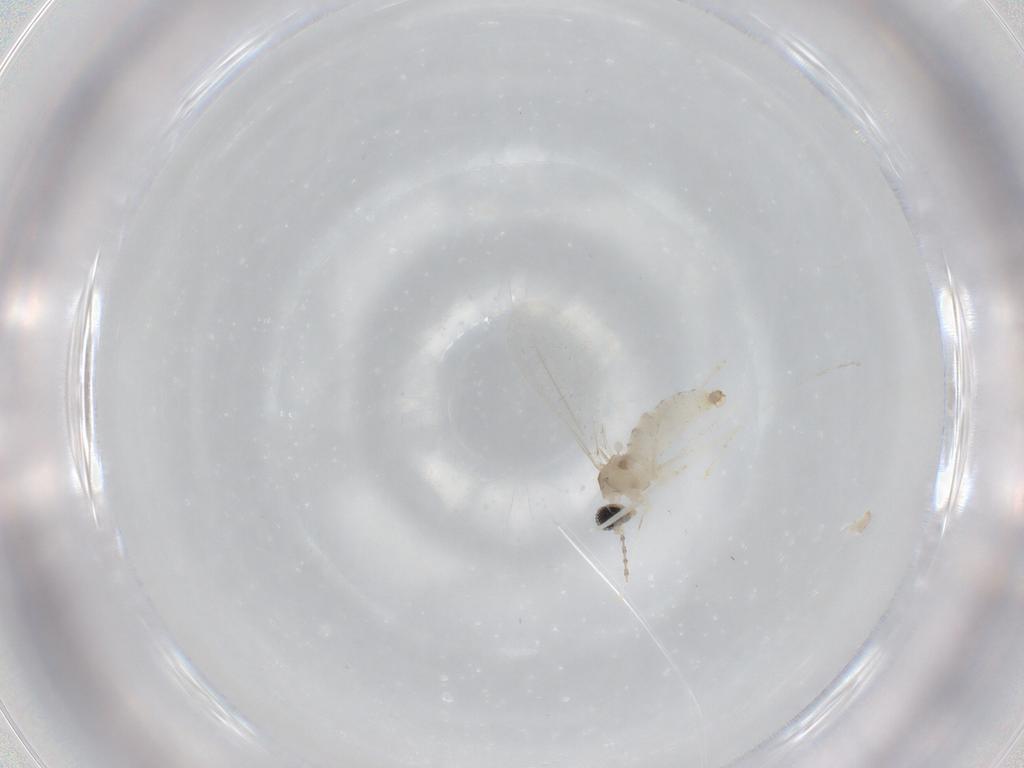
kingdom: Animalia
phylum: Arthropoda
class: Insecta
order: Diptera
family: Cecidomyiidae
